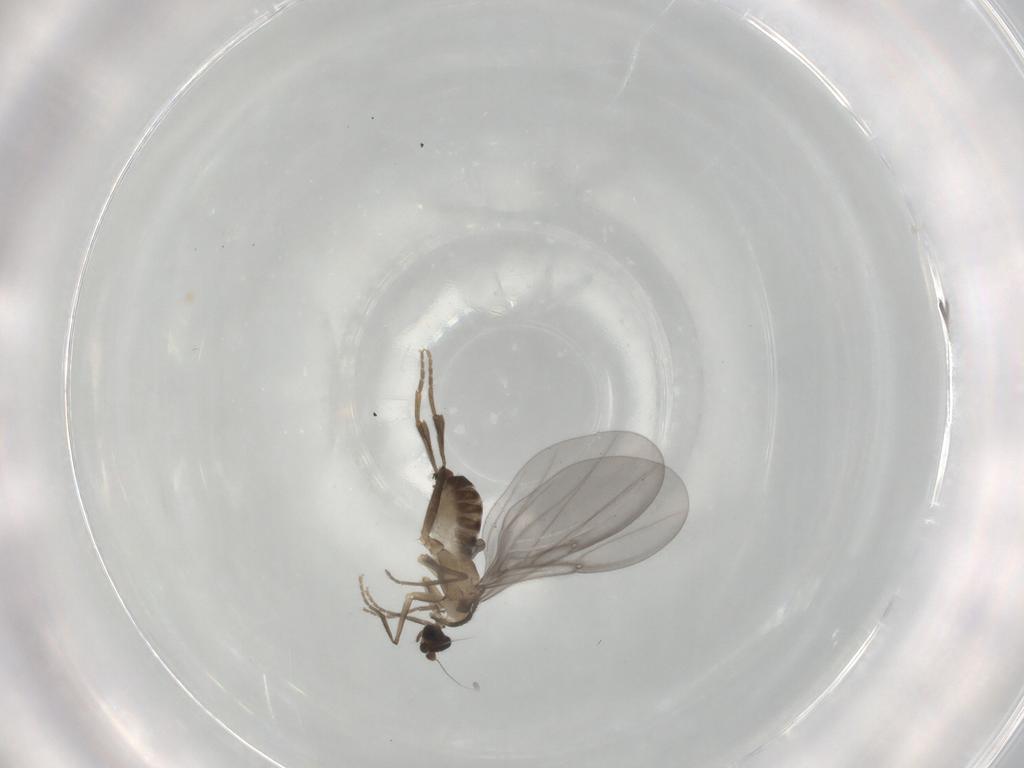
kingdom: Animalia
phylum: Arthropoda
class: Insecta
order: Diptera
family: Phoridae
